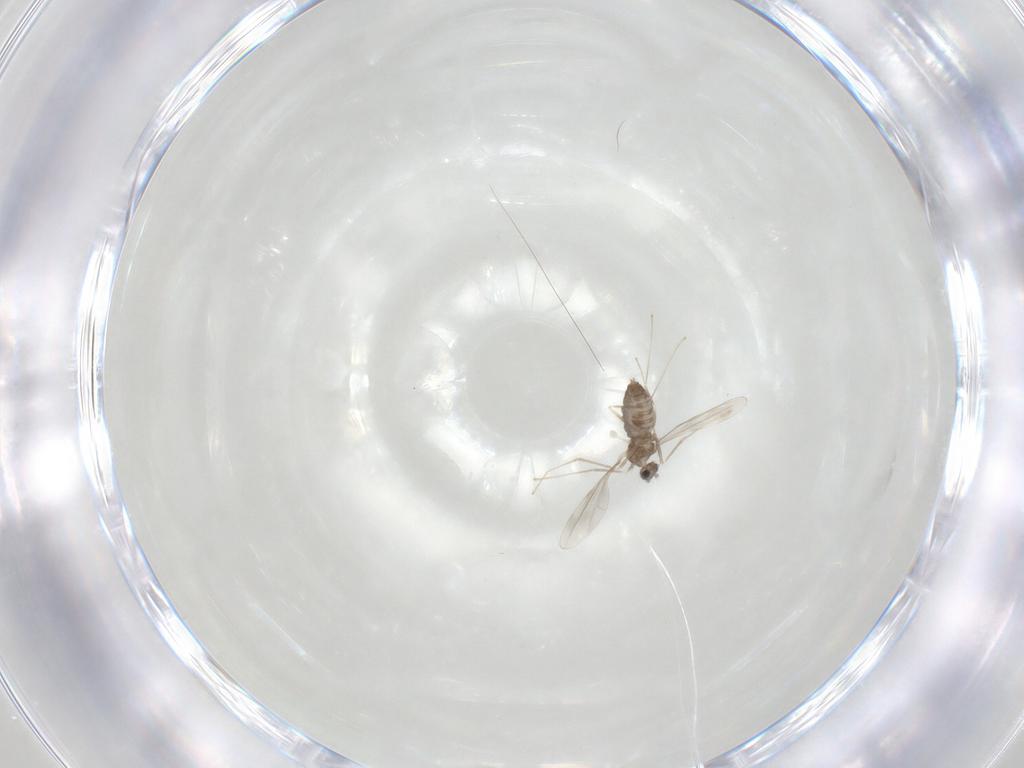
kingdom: Animalia
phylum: Arthropoda
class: Insecta
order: Diptera
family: Cecidomyiidae
